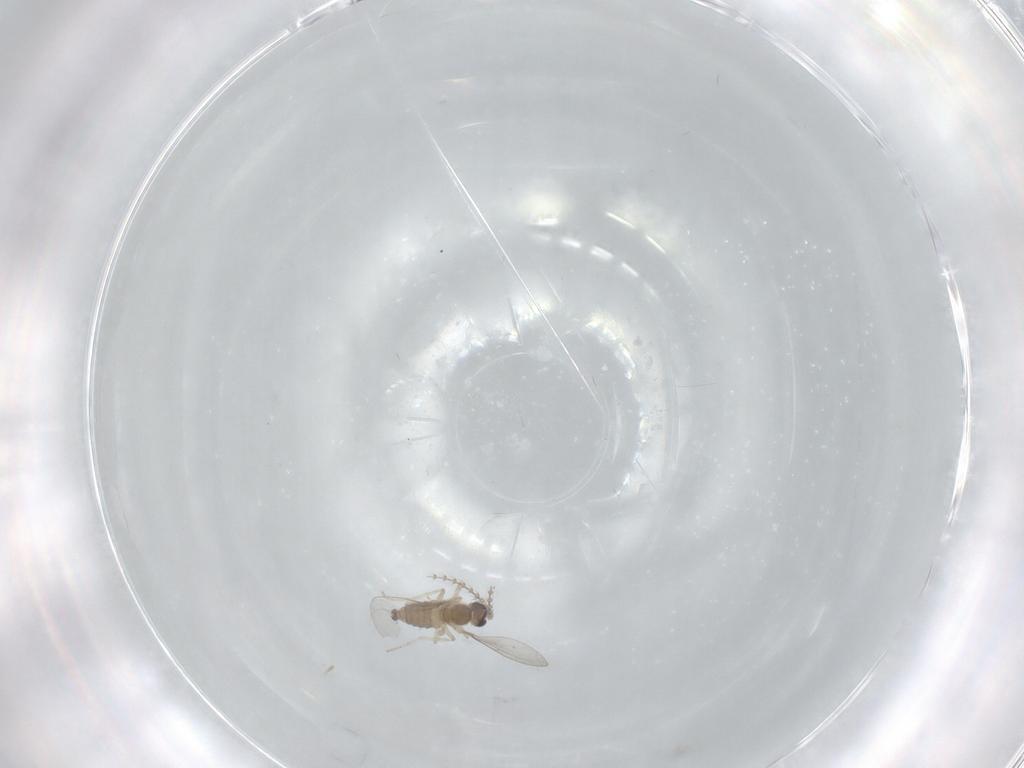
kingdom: Animalia
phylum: Arthropoda
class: Insecta
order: Diptera
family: Cecidomyiidae
